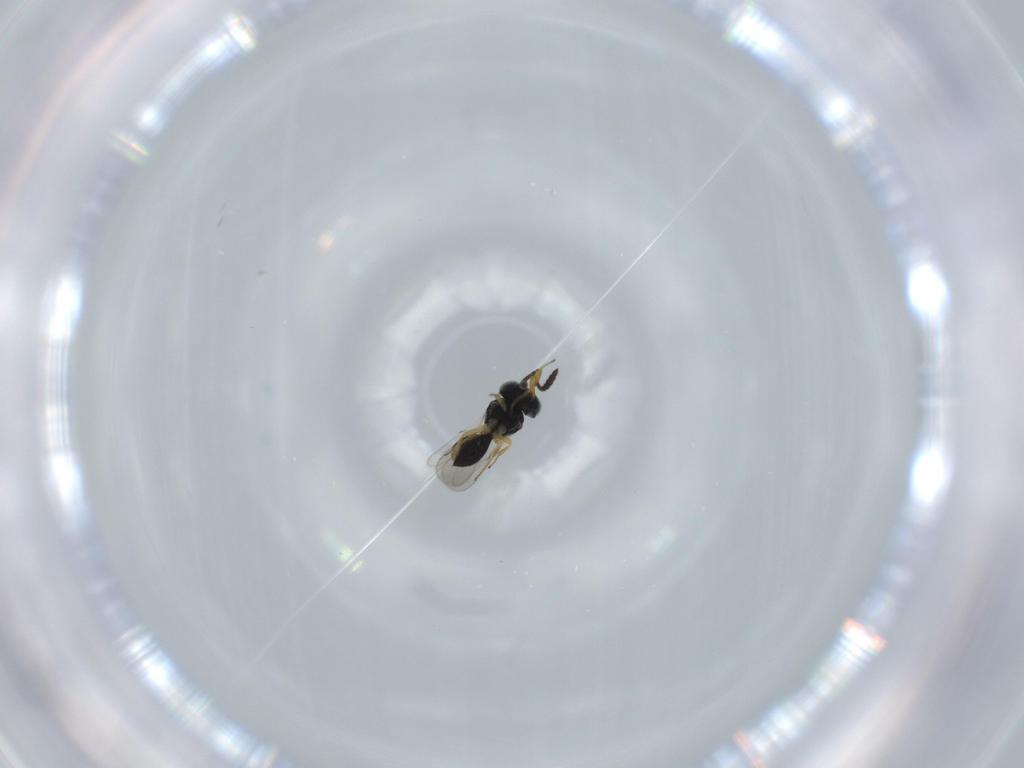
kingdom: Animalia
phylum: Arthropoda
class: Insecta
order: Hymenoptera
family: Scelionidae
